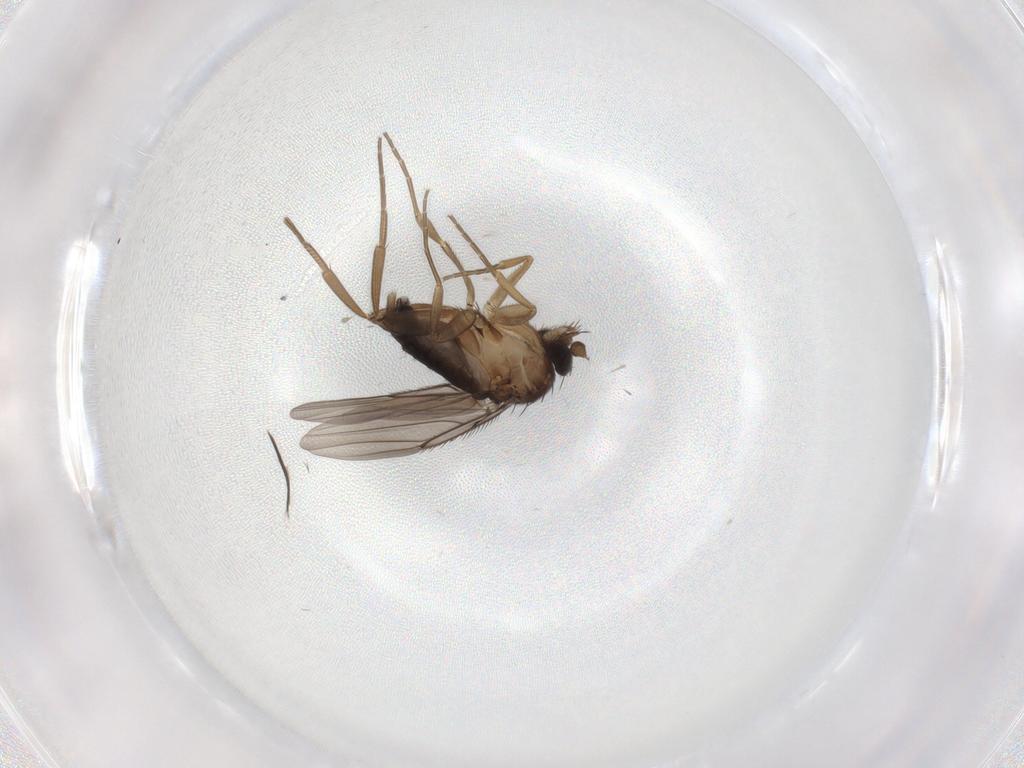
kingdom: Animalia
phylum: Arthropoda
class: Insecta
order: Diptera
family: Phoridae
